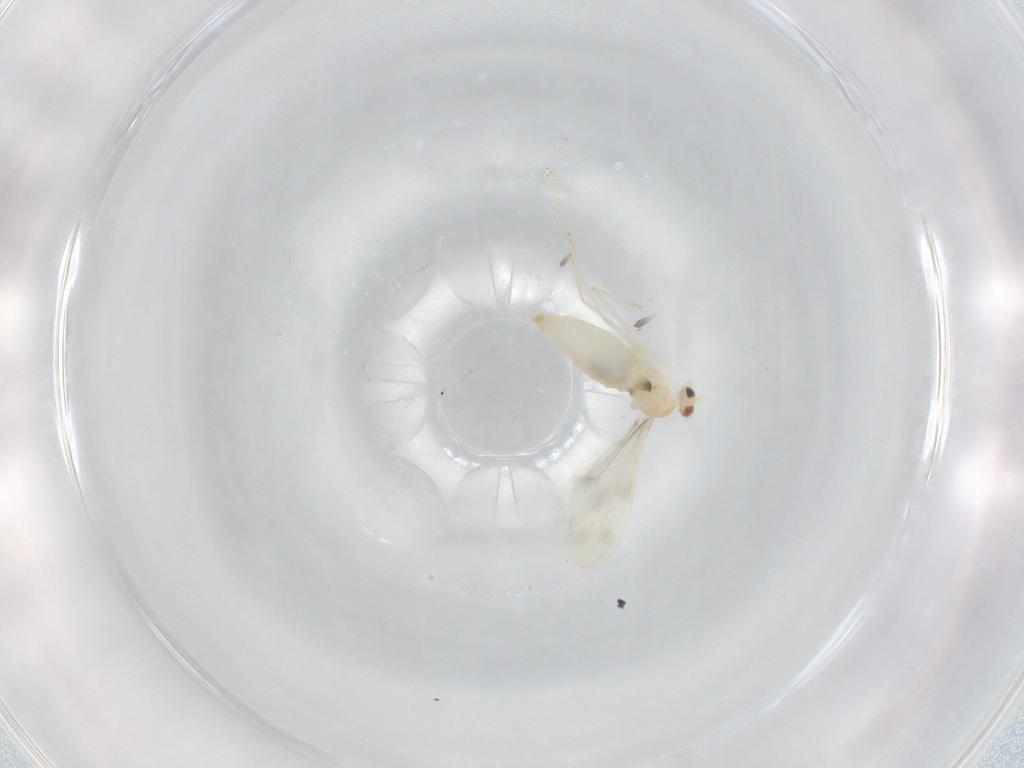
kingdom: Animalia
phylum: Arthropoda
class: Insecta
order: Diptera
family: Cecidomyiidae
